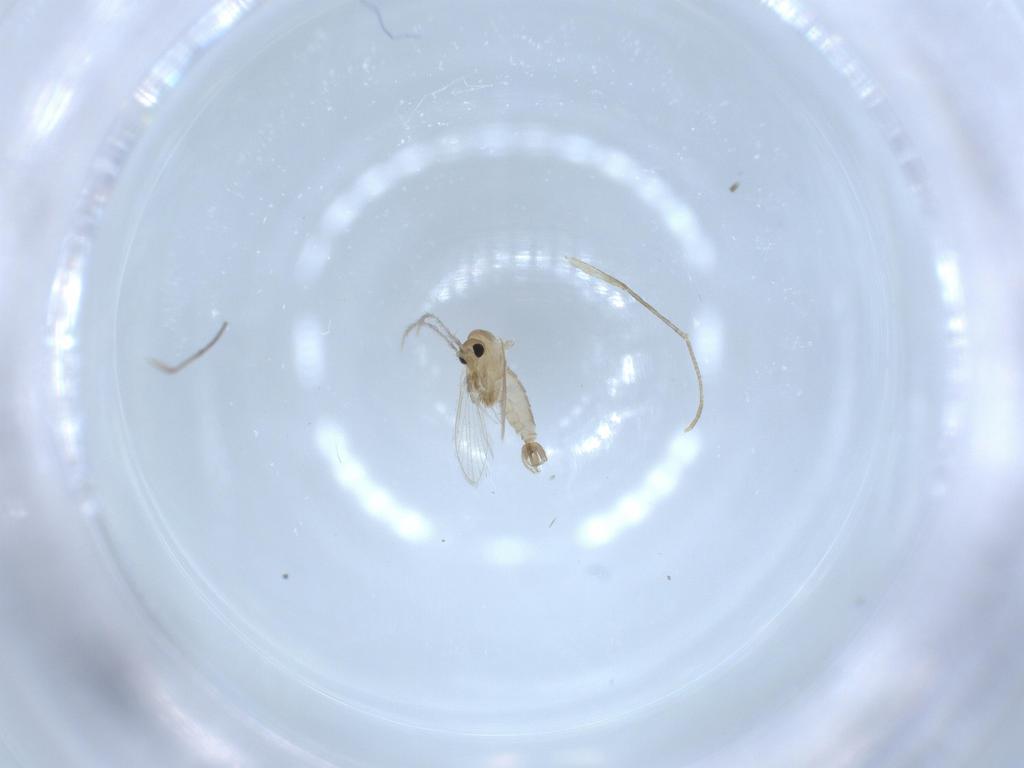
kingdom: Animalia
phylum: Arthropoda
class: Insecta
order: Diptera
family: Psychodidae
